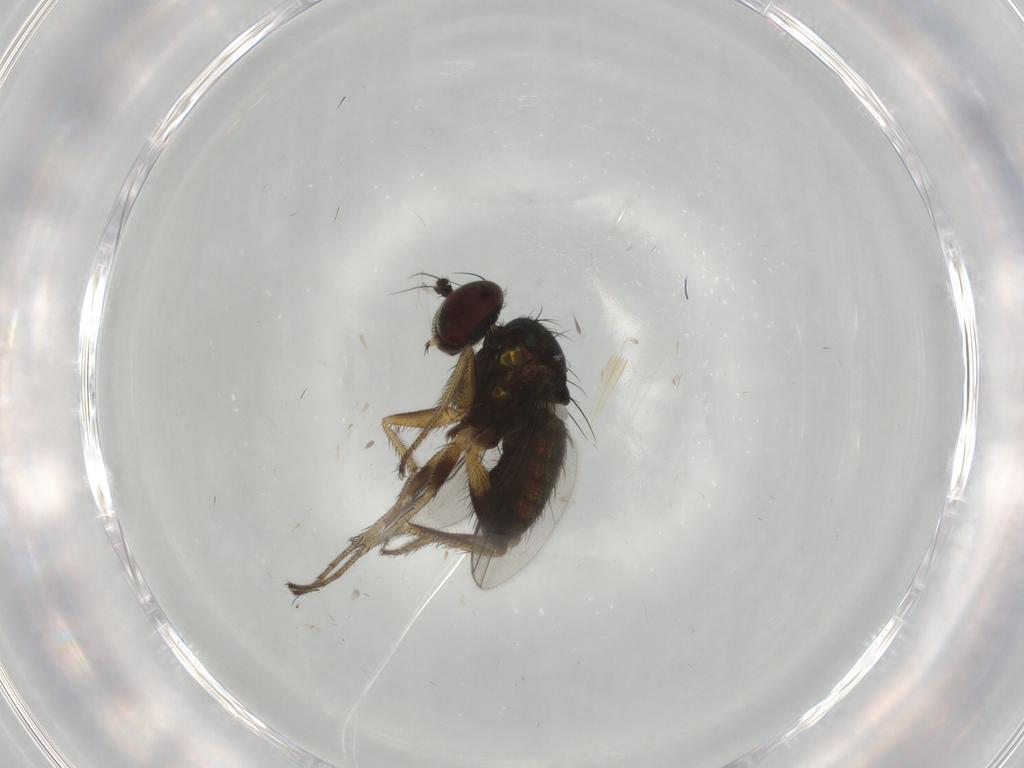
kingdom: Animalia
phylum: Arthropoda
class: Insecta
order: Diptera
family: Dolichopodidae
